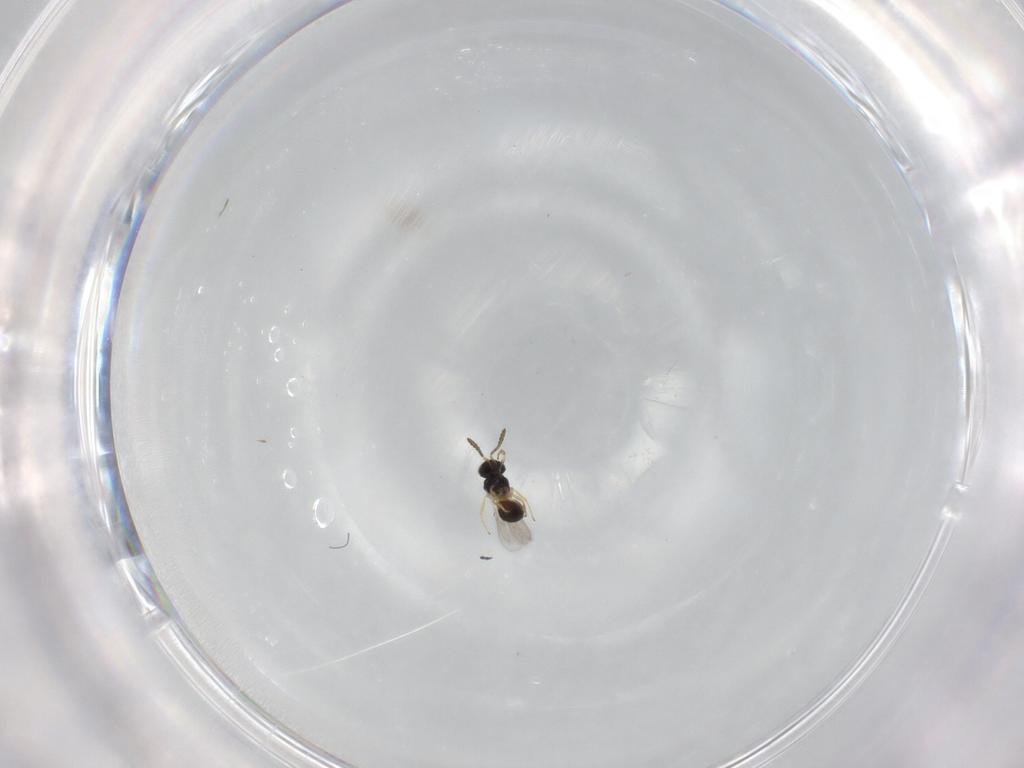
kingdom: Animalia
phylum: Arthropoda
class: Insecta
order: Hymenoptera
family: Scelionidae
